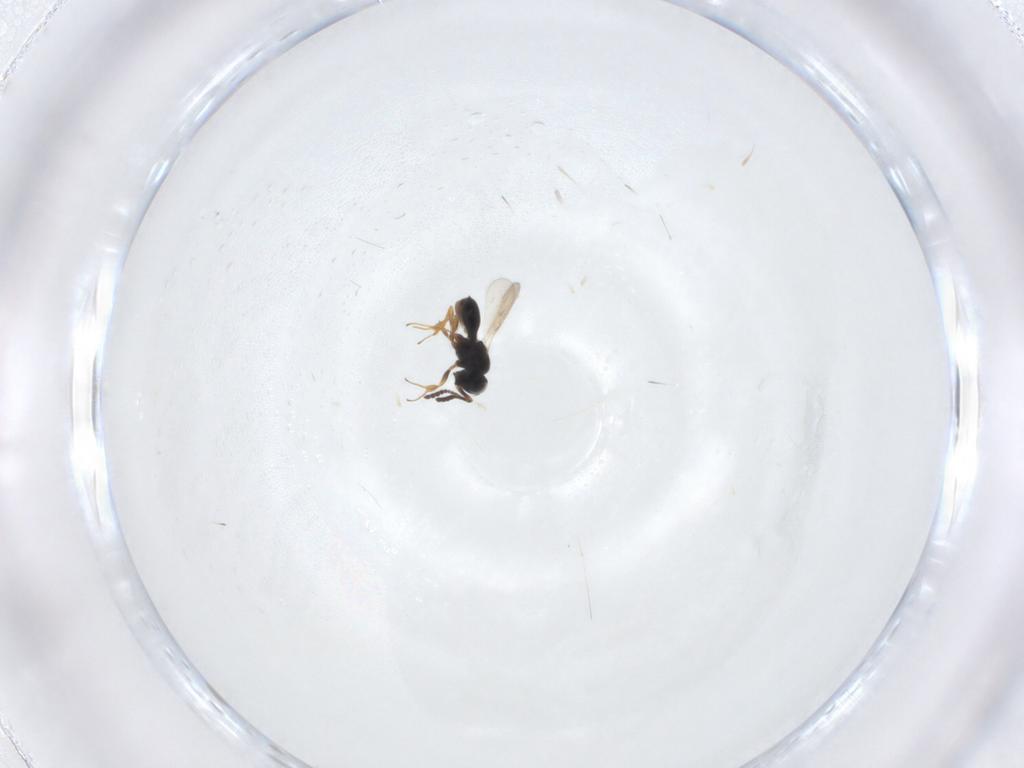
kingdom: Animalia
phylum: Arthropoda
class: Insecta
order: Hymenoptera
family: Scelionidae
